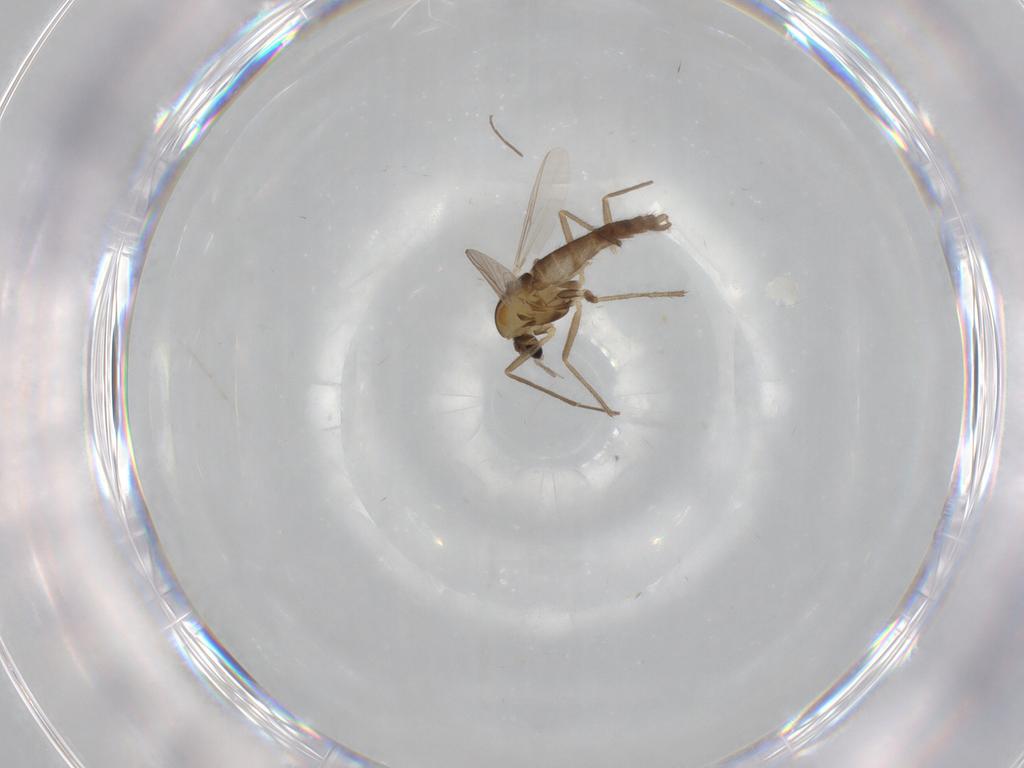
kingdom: Animalia
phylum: Arthropoda
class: Insecta
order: Diptera
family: Chironomidae
